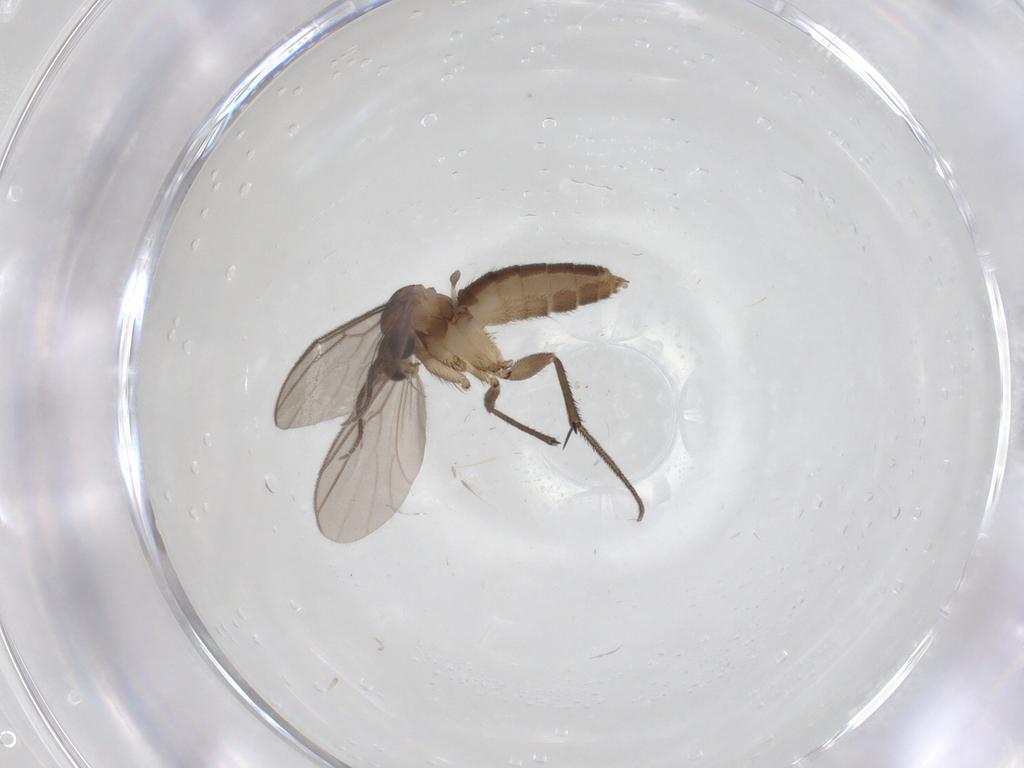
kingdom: Animalia
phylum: Arthropoda
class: Insecta
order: Diptera
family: Mycetophilidae
